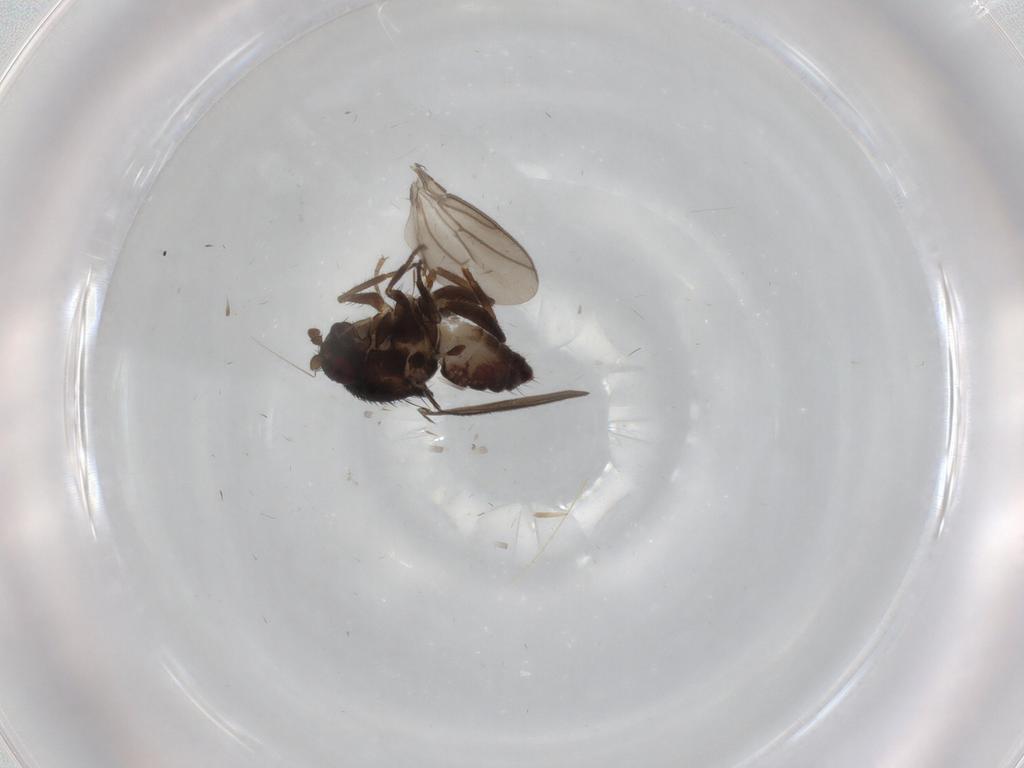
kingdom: Animalia
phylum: Arthropoda
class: Insecta
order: Diptera
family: Sphaeroceridae
